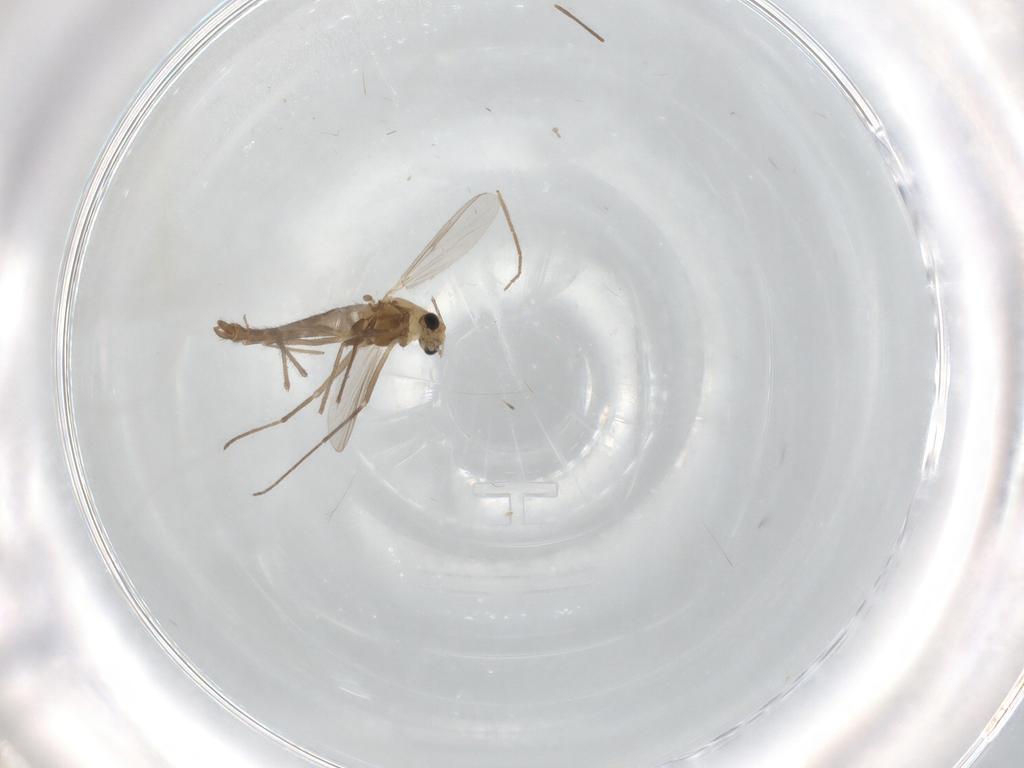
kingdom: Animalia
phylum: Arthropoda
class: Insecta
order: Diptera
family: Chironomidae
